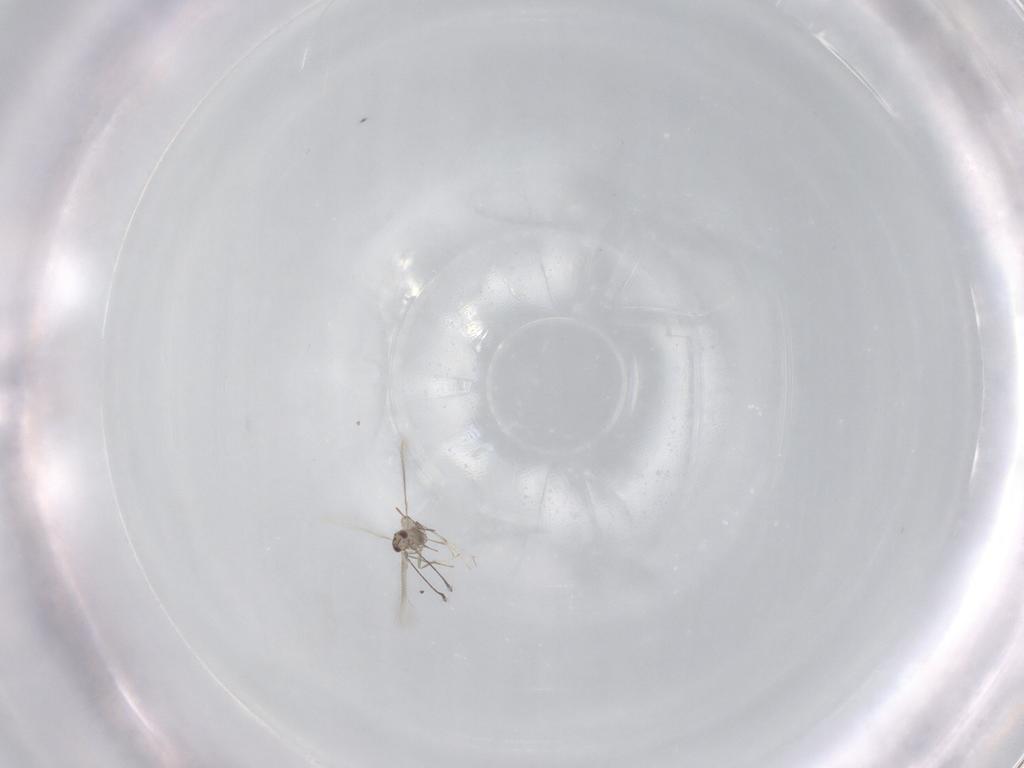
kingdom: Animalia
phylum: Arthropoda
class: Insecta
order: Hymenoptera
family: Mymaridae
